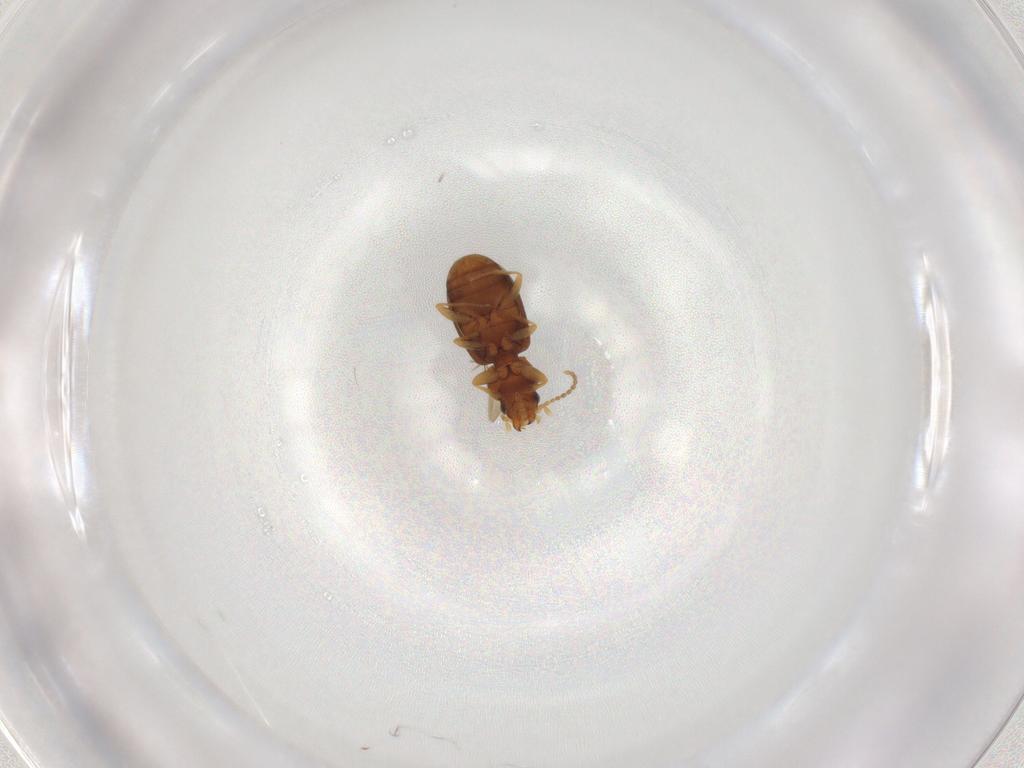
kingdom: Animalia
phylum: Arthropoda
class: Insecta
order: Coleoptera
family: Carabidae
